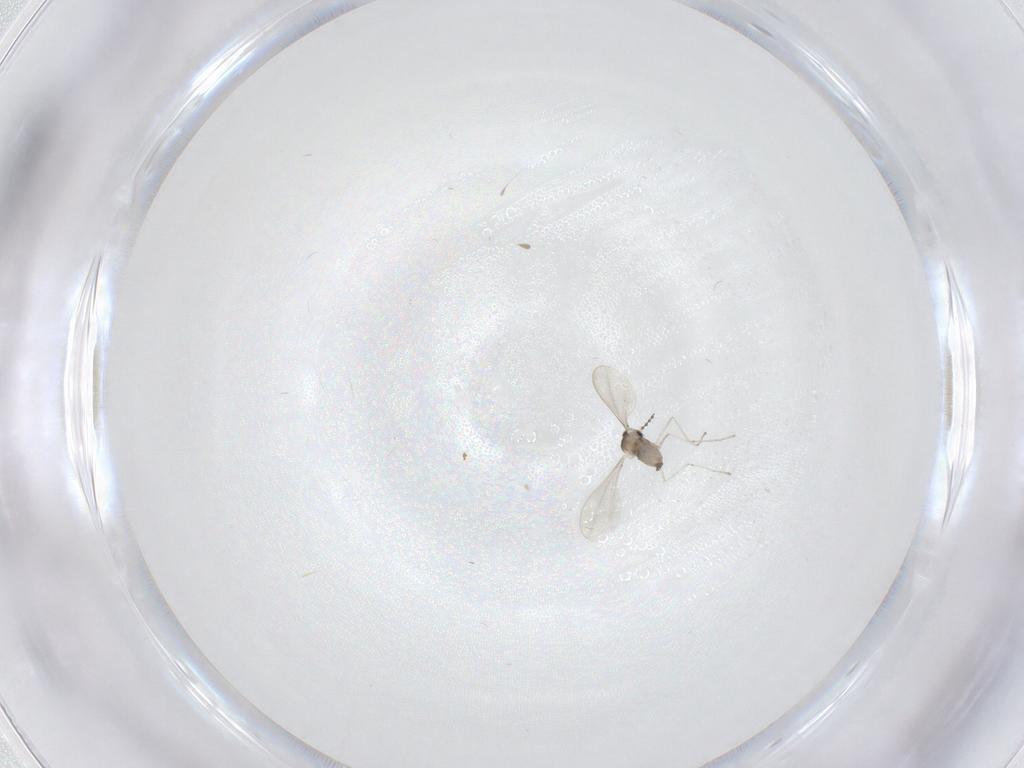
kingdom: Animalia
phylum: Arthropoda
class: Insecta
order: Diptera
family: Cecidomyiidae
